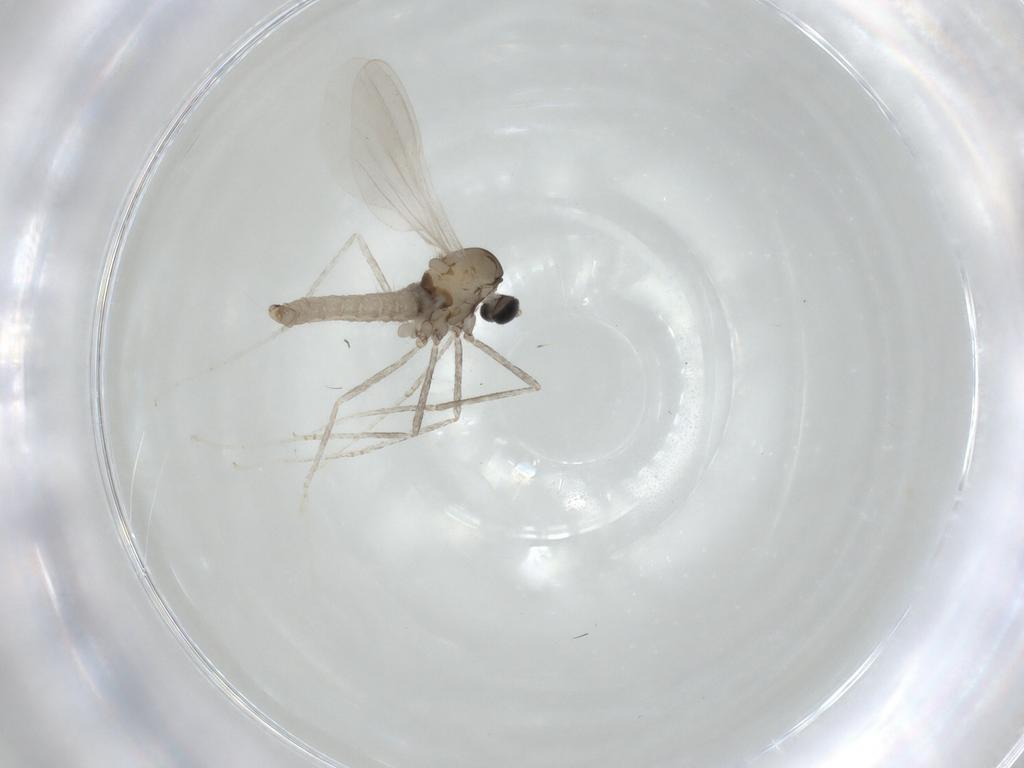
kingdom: Animalia
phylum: Arthropoda
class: Insecta
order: Diptera
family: Cecidomyiidae
